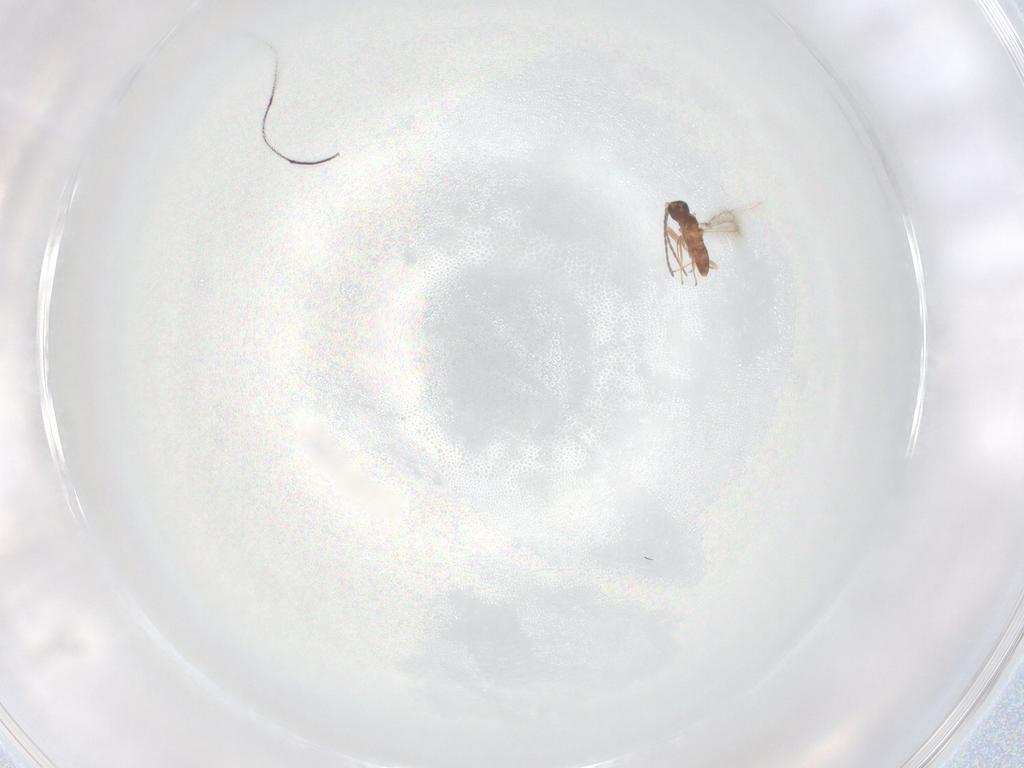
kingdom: Animalia
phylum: Arthropoda
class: Insecta
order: Hymenoptera
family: Mymaridae
